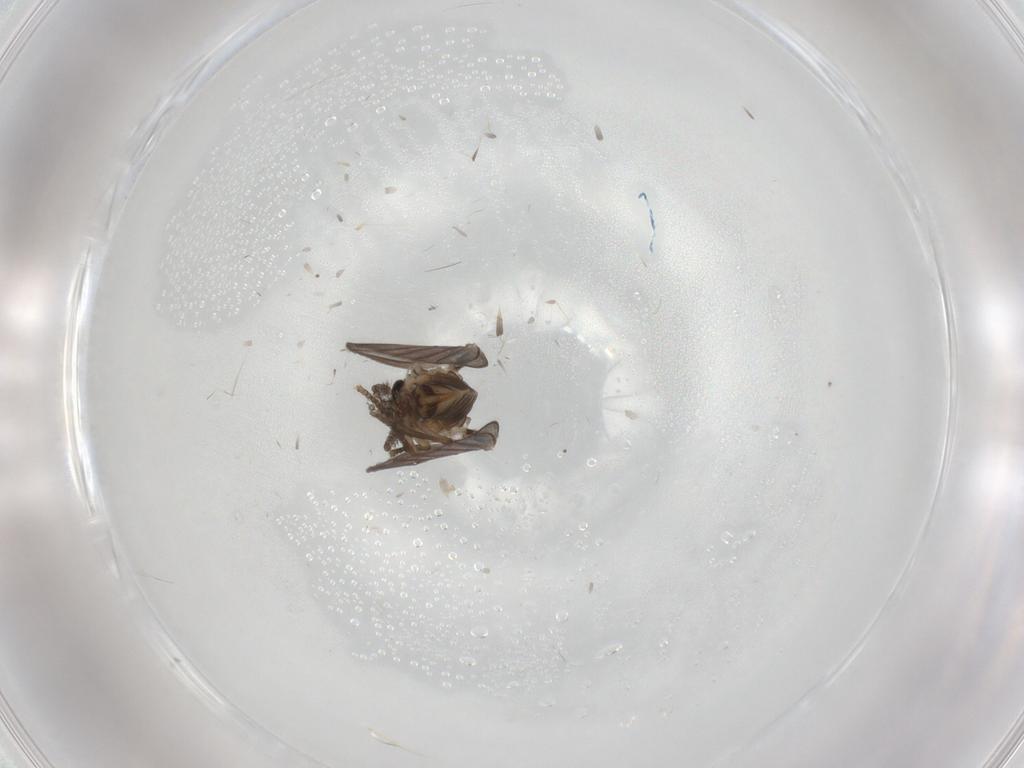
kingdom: Animalia
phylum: Arthropoda
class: Insecta
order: Diptera
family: Psychodidae
